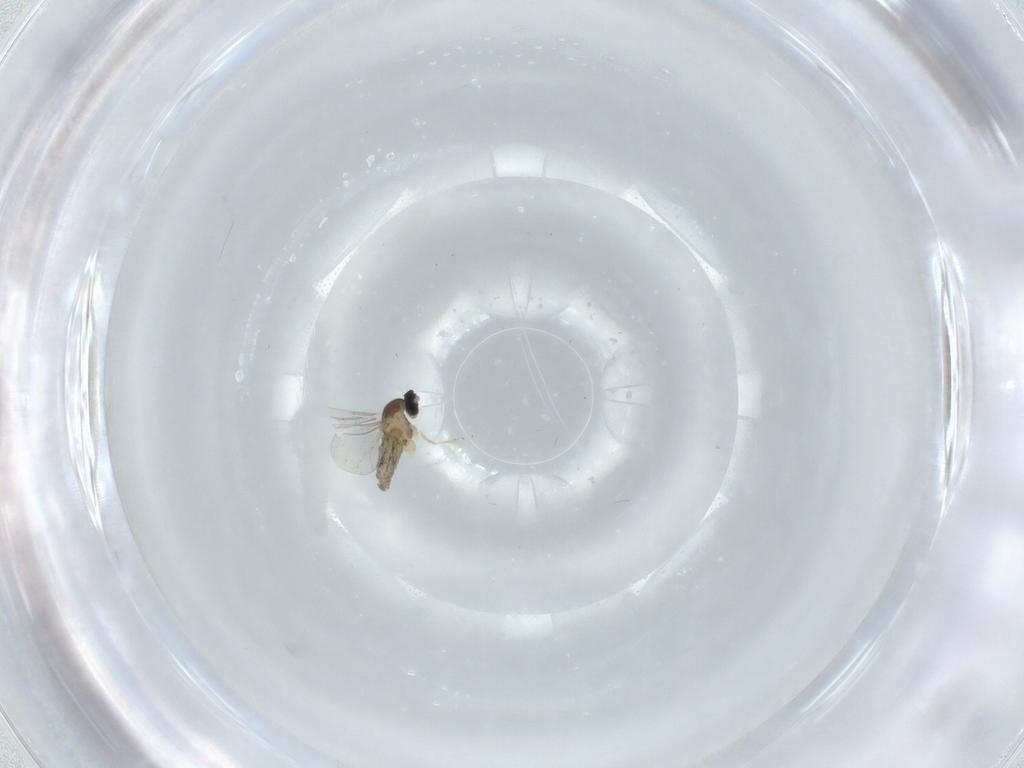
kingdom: Animalia
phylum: Arthropoda
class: Insecta
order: Diptera
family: Cecidomyiidae
